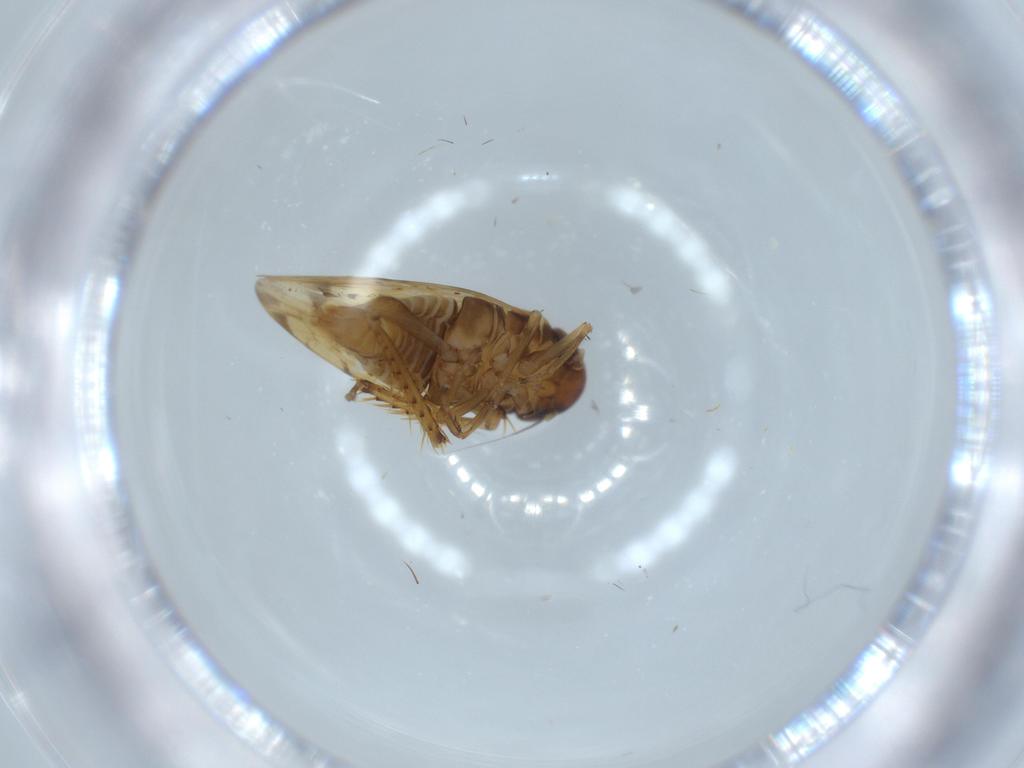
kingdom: Animalia
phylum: Arthropoda
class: Insecta
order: Hemiptera
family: Cicadellidae
